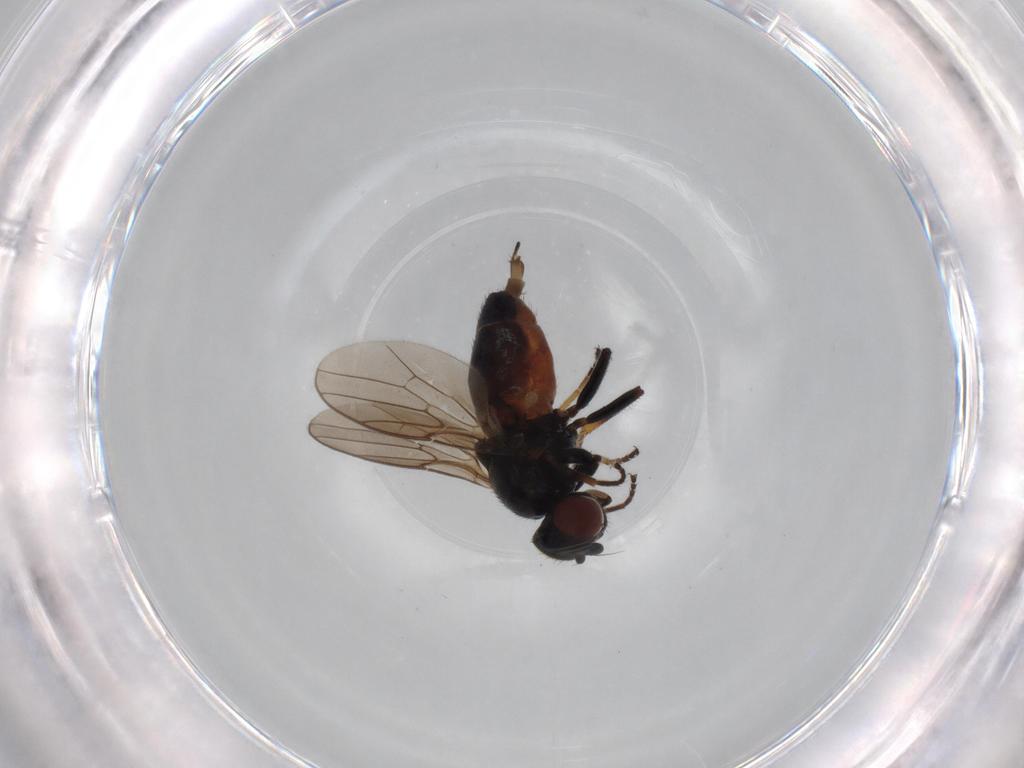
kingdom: Animalia
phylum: Arthropoda
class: Insecta
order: Diptera
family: Chloropidae
